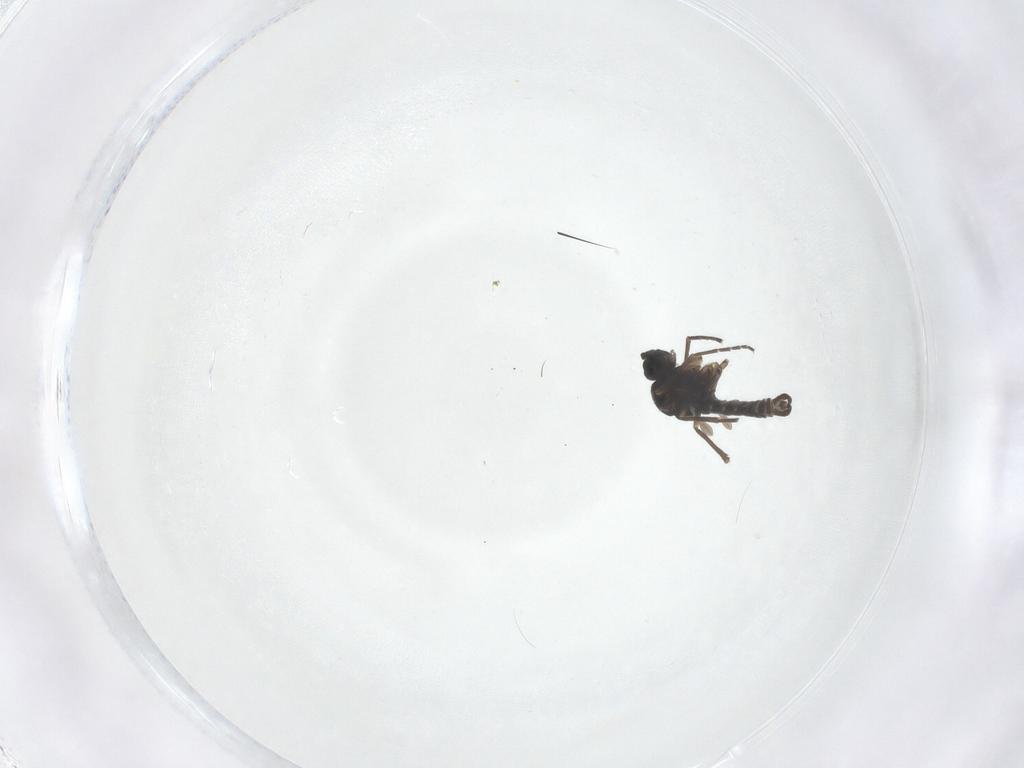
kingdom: Animalia
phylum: Arthropoda
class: Insecta
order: Diptera
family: Sciaridae
